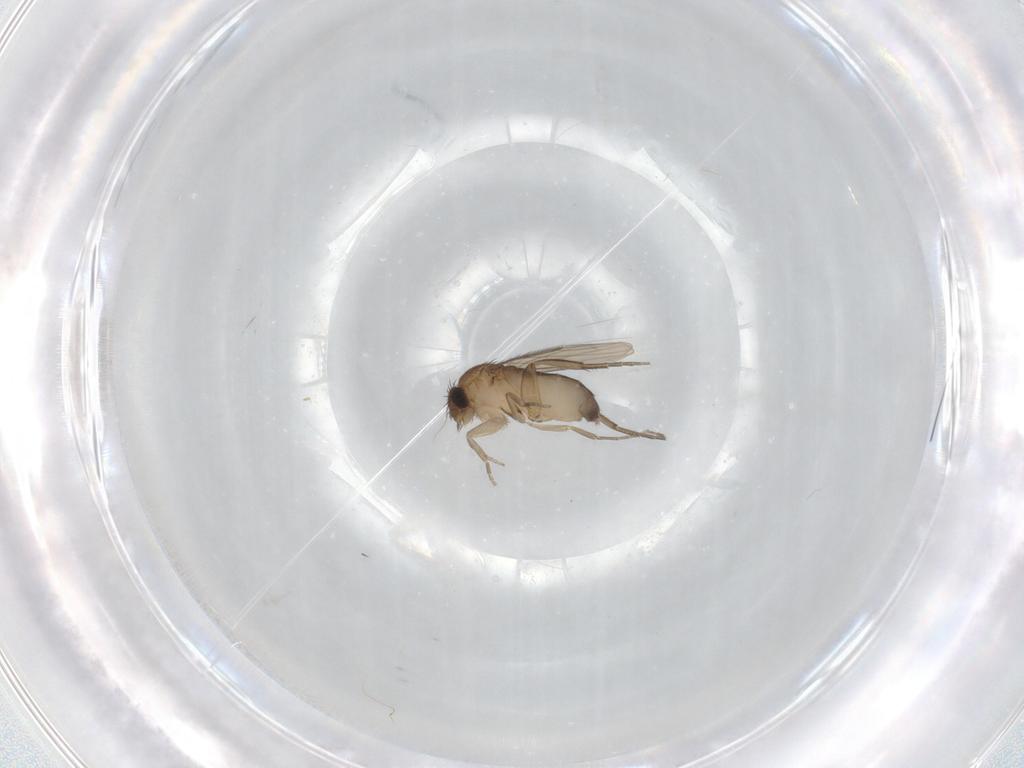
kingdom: Animalia
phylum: Arthropoda
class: Insecta
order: Diptera
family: Phoridae
